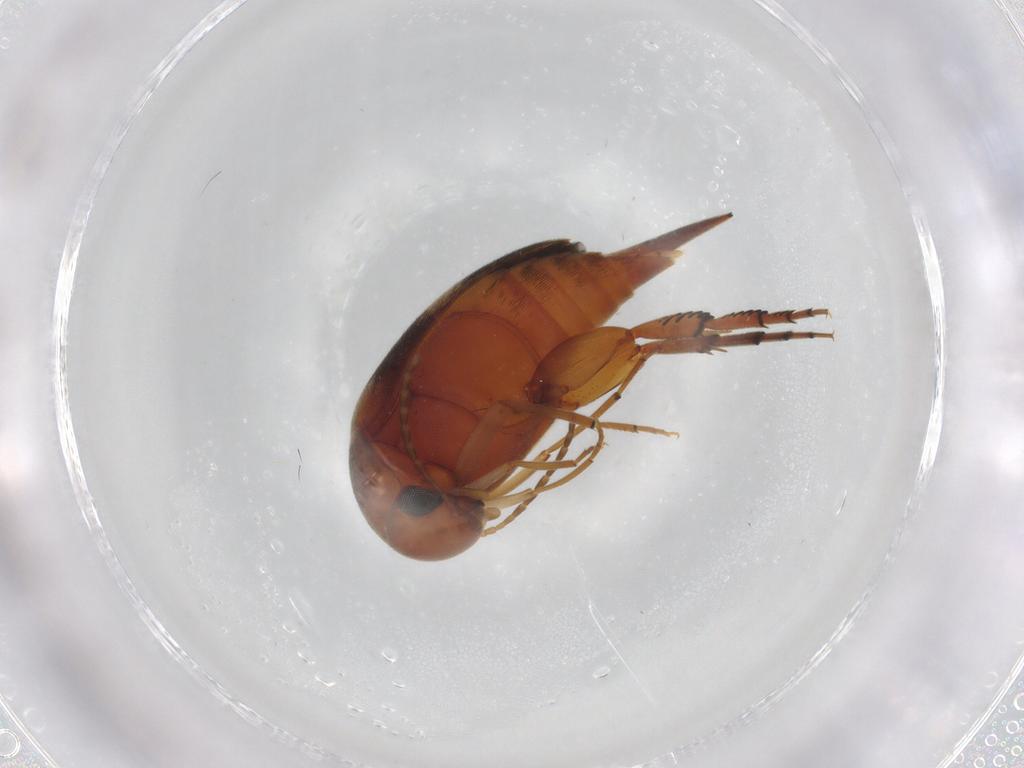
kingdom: Animalia
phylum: Arthropoda
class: Insecta
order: Coleoptera
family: Mordellidae
